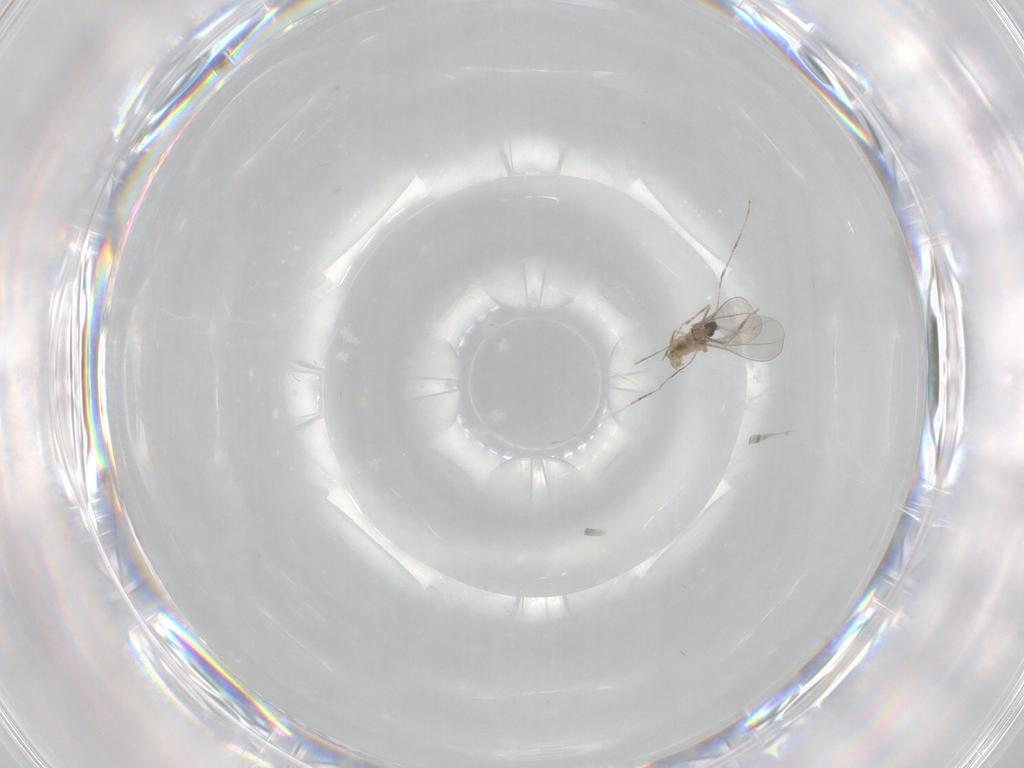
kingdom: Animalia
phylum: Arthropoda
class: Insecta
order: Diptera
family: Cecidomyiidae
